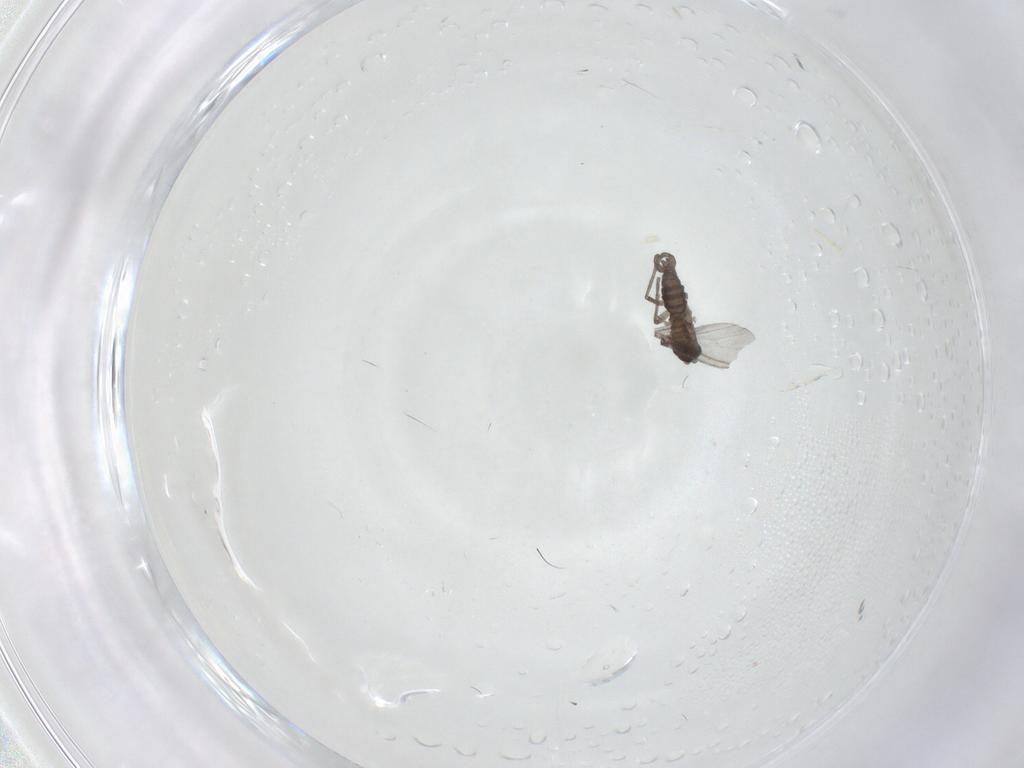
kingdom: Animalia
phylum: Arthropoda
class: Insecta
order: Diptera
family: Sciaridae
